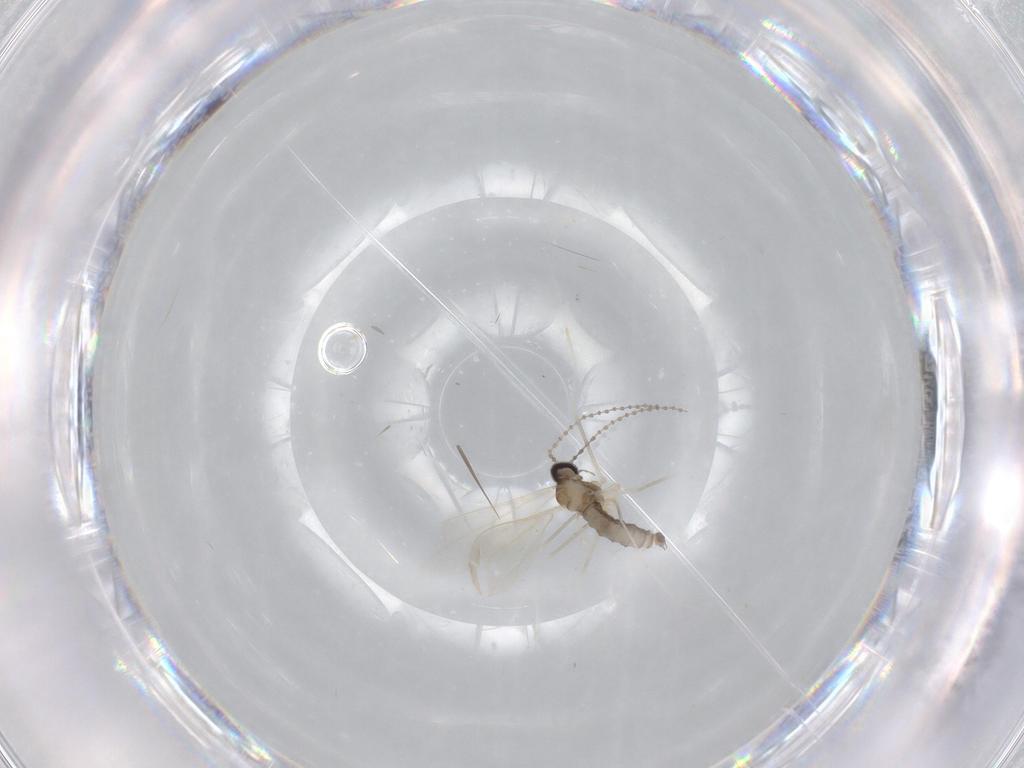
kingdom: Animalia
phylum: Arthropoda
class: Insecta
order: Diptera
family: Cecidomyiidae
